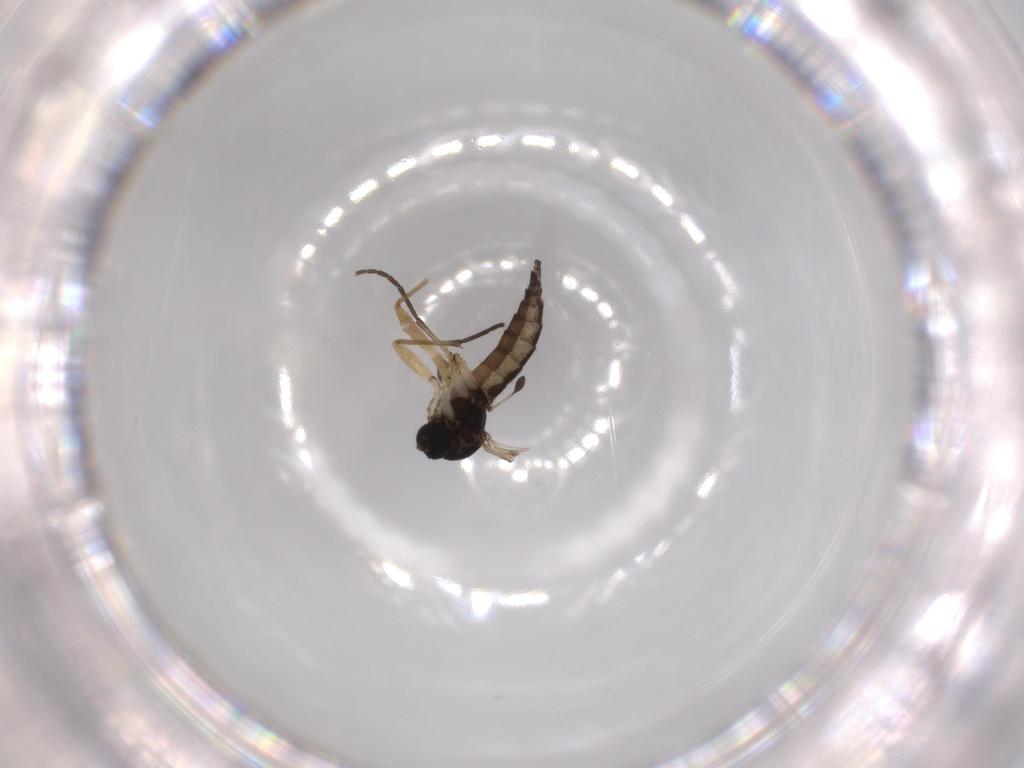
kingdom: Animalia
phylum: Arthropoda
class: Insecta
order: Diptera
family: Sciaridae
